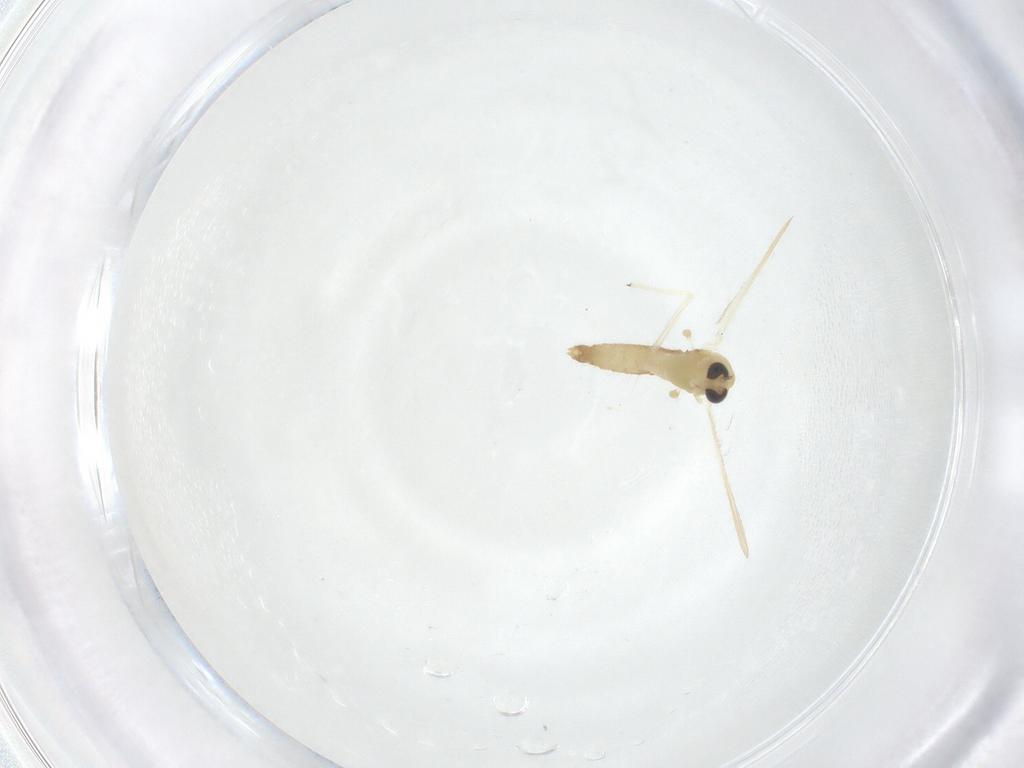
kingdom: Animalia
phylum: Arthropoda
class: Insecta
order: Diptera
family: Chironomidae
